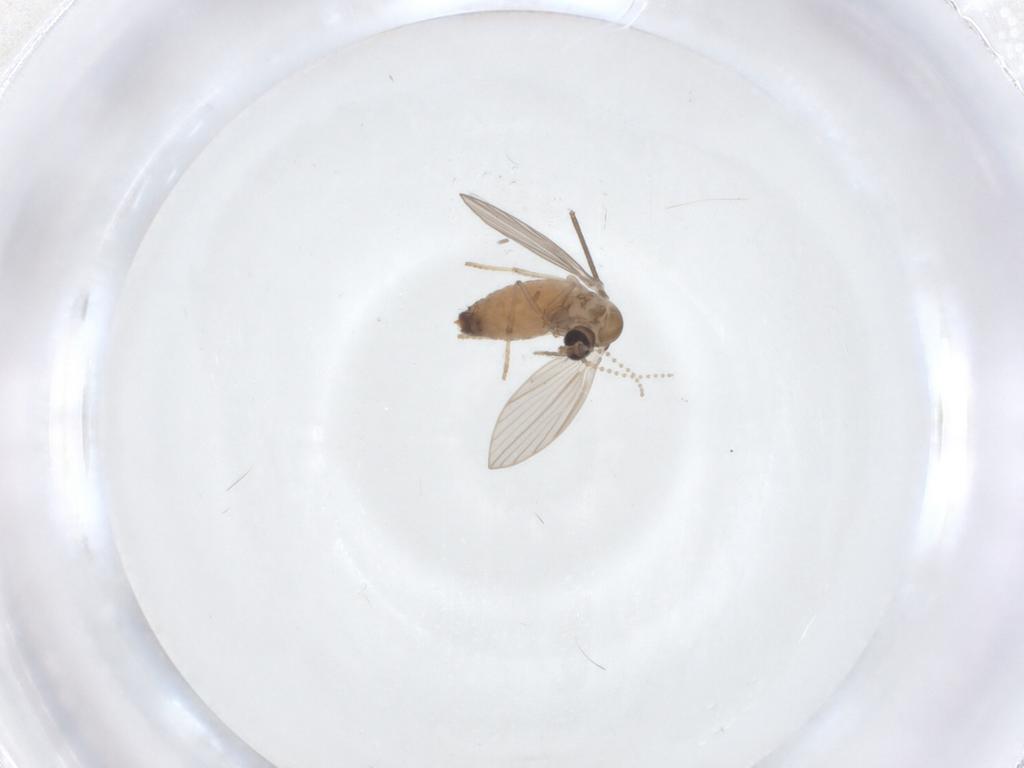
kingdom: Animalia
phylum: Arthropoda
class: Insecta
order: Diptera
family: Psychodidae
